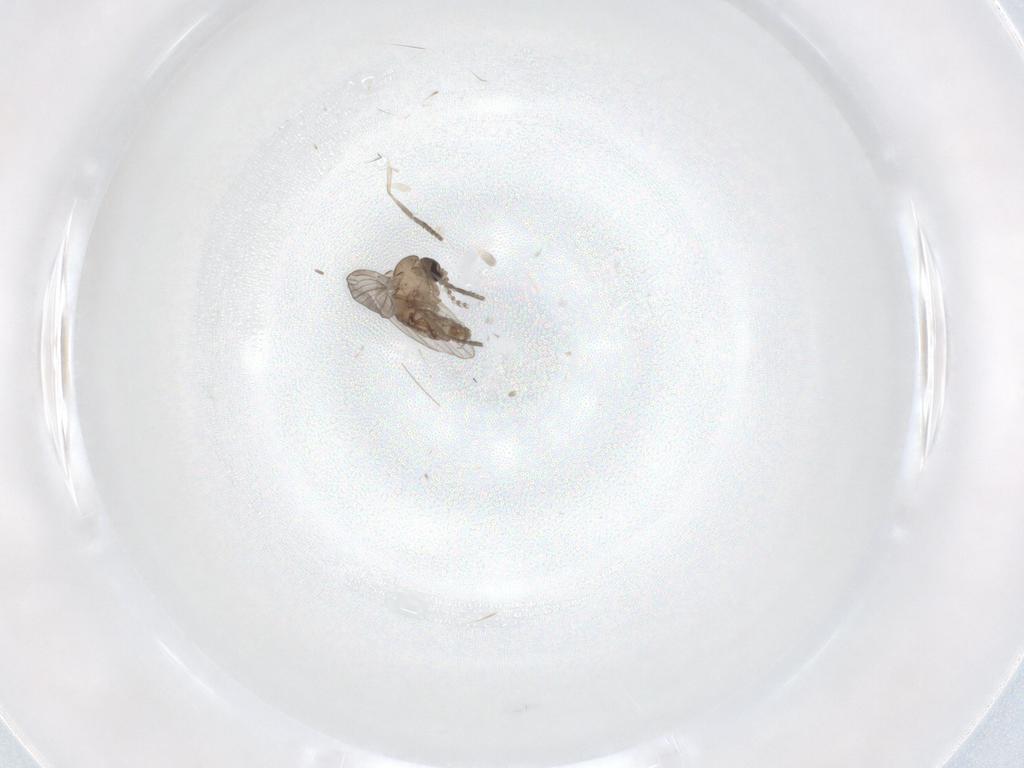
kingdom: Animalia
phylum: Arthropoda
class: Insecta
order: Diptera
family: Psychodidae
